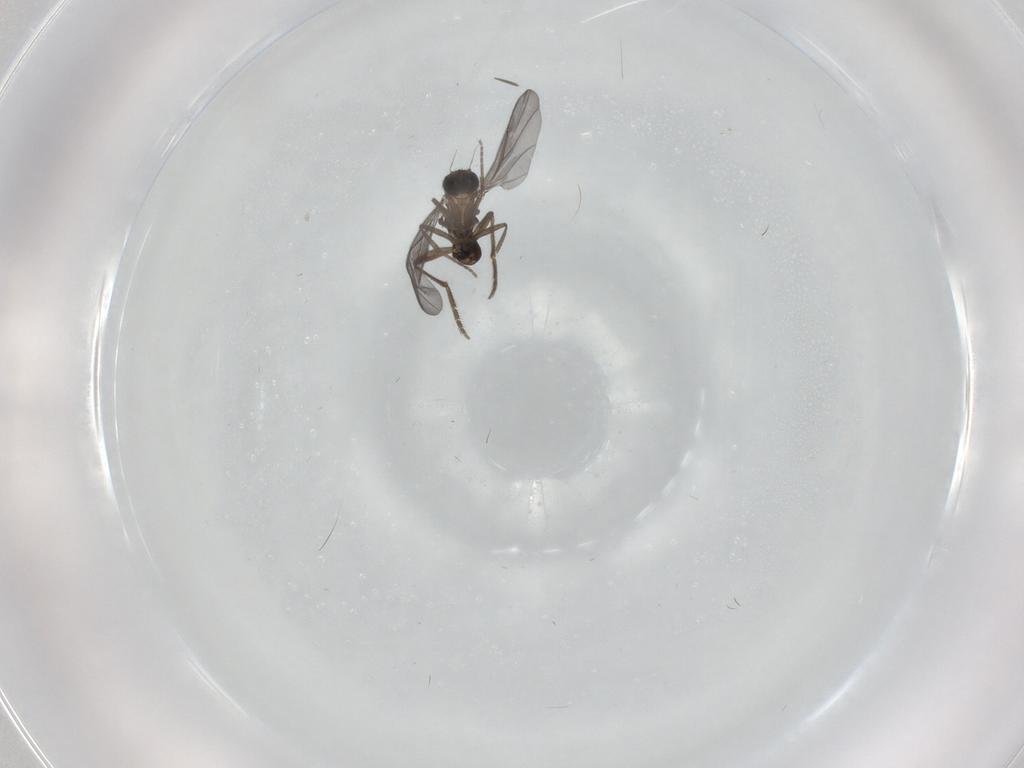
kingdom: Animalia
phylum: Arthropoda
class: Insecta
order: Diptera
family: Tipulidae
